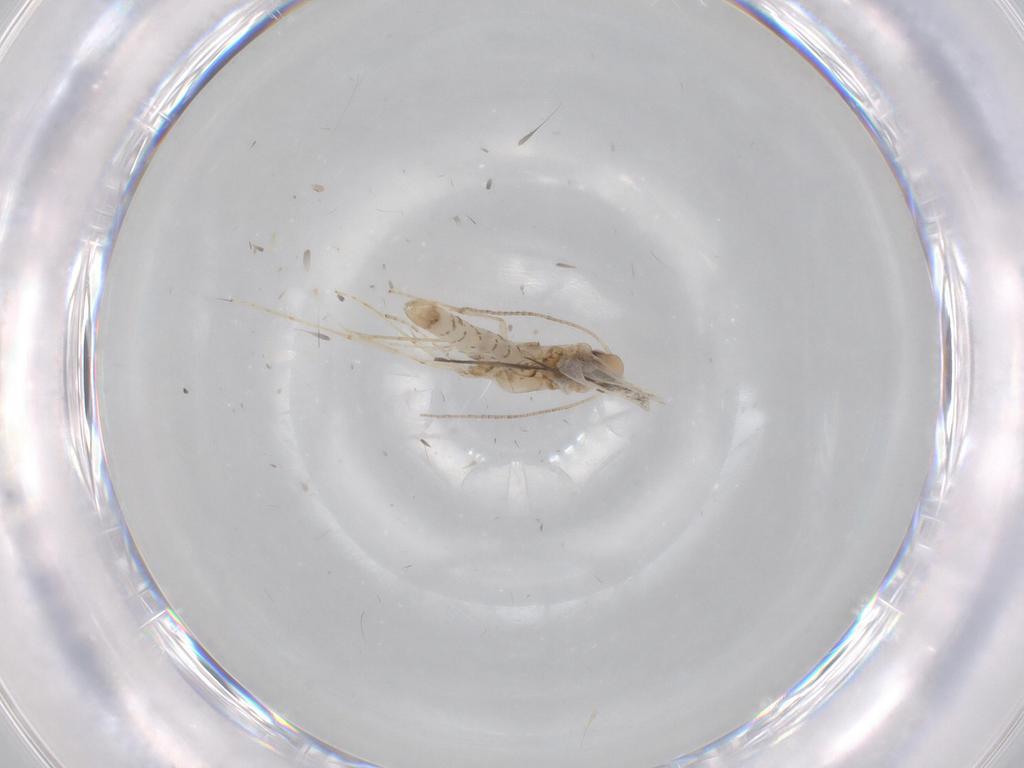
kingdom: Animalia
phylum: Arthropoda
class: Insecta
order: Lepidoptera
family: Gracillariidae
